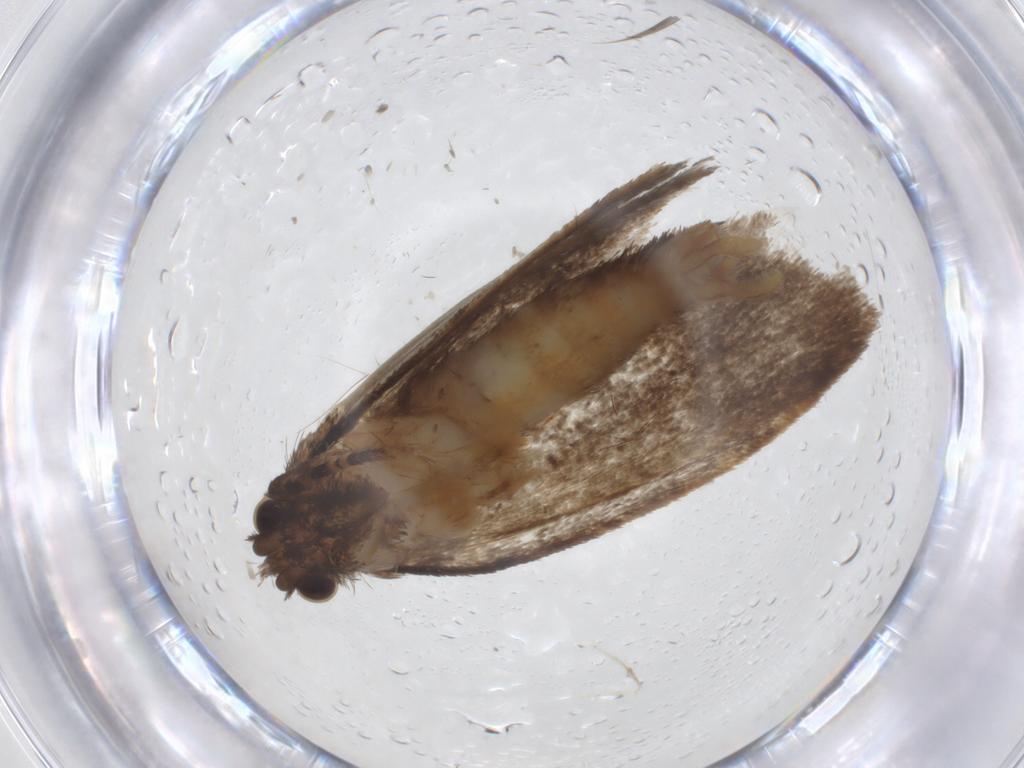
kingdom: Animalia
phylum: Arthropoda
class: Insecta
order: Lepidoptera
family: Tineidae
